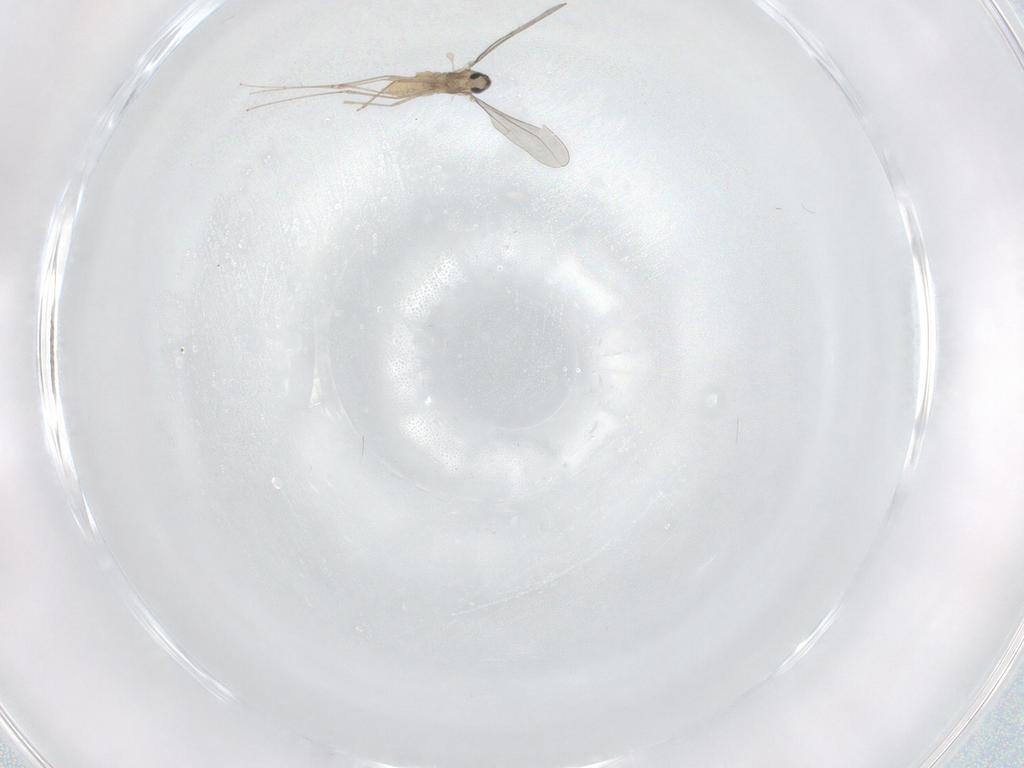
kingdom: Animalia
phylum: Arthropoda
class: Insecta
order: Diptera
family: Cecidomyiidae
